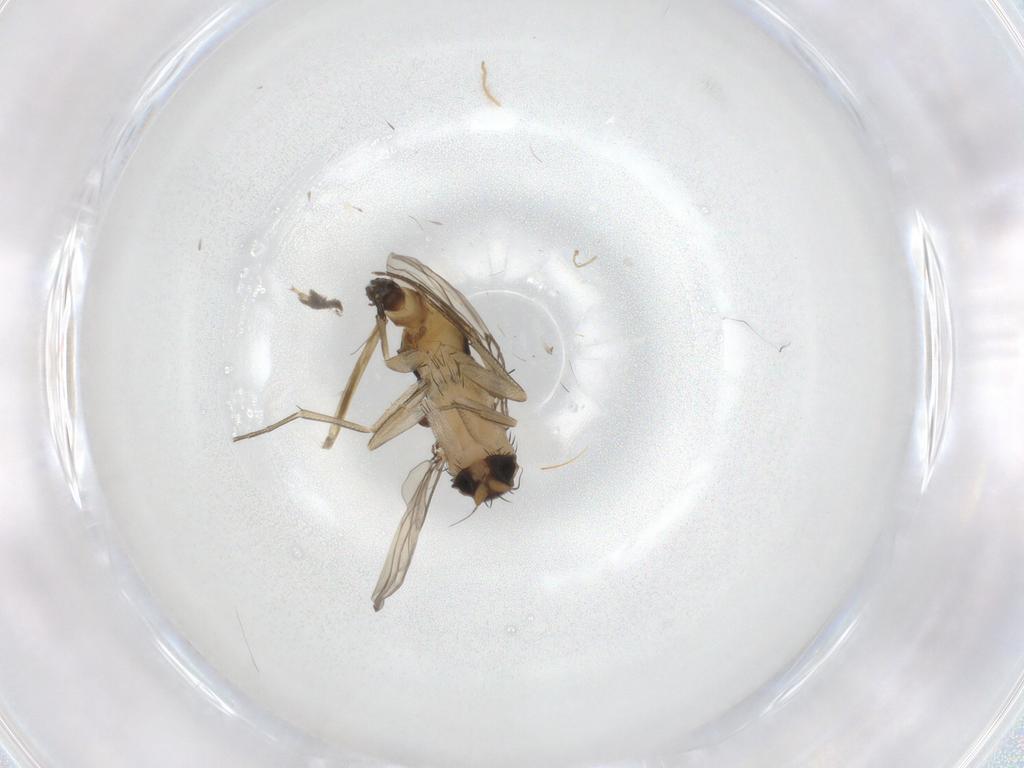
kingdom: Animalia
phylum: Arthropoda
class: Insecta
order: Diptera
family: Phoridae
